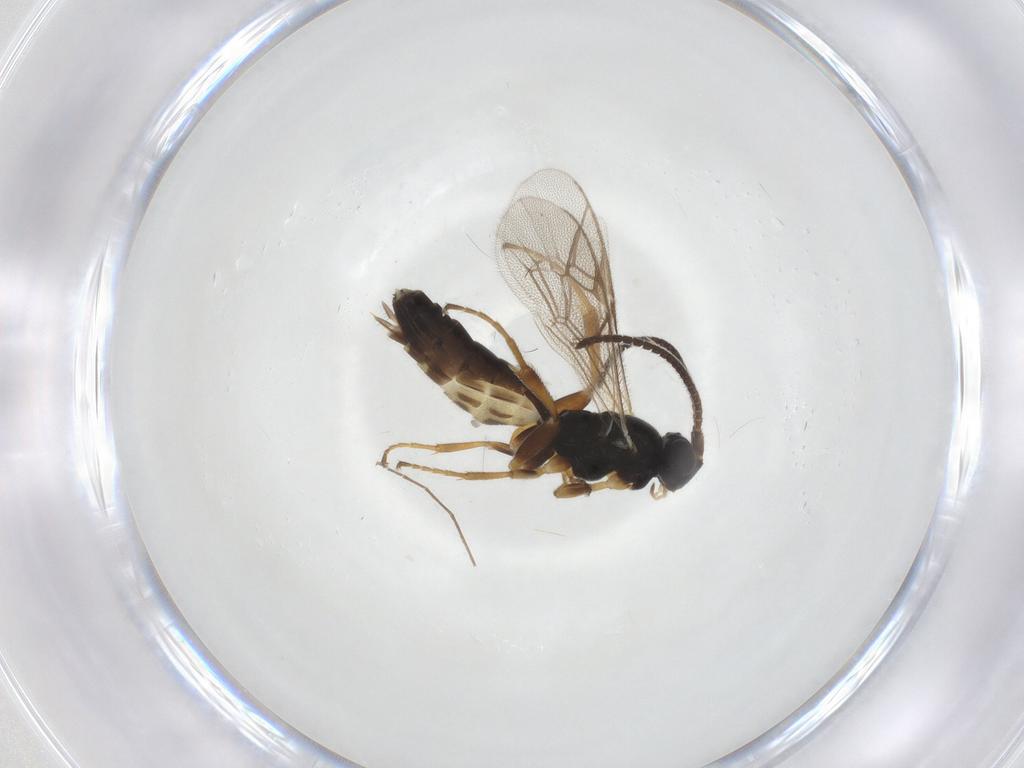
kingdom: Animalia
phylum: Arthropoda
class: Insecta
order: Hymenoptera
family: Ichneumonidae
